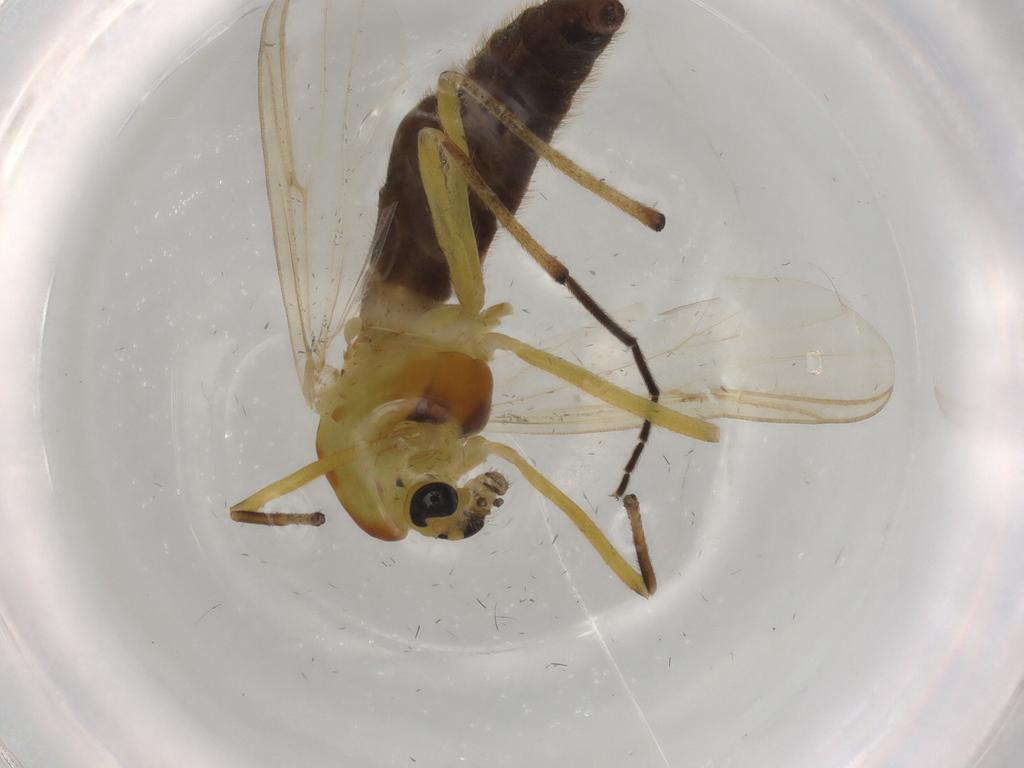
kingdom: Animalia
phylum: Arthropoda
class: Insecta
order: Diptera
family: Chironomidae
